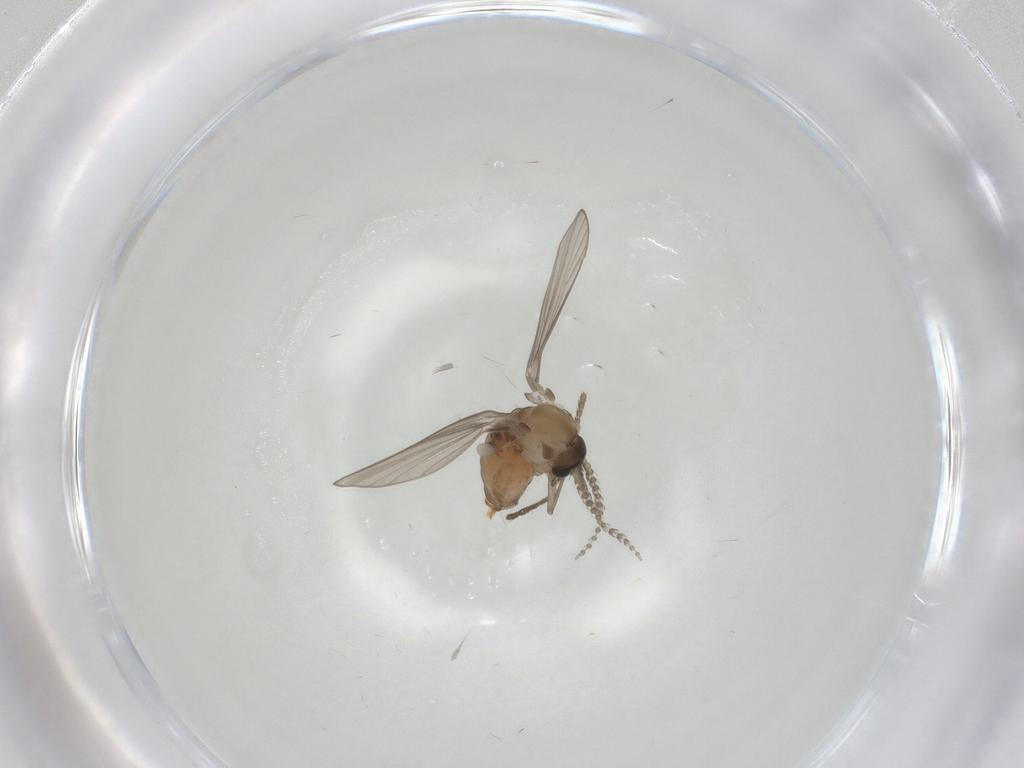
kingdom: Animalia
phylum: Arthropoda
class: Insecta
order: Diptera
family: Psychodidae
